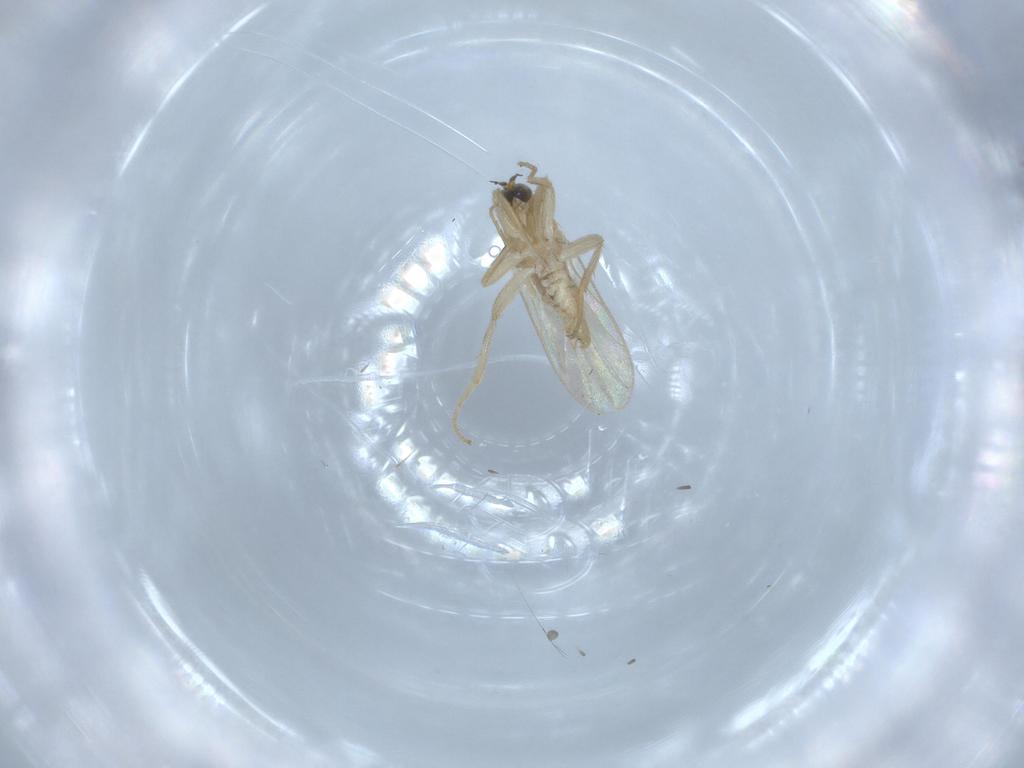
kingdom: Animalia
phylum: Arthropoda
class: Insecta
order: Diptera
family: Hybotidae
